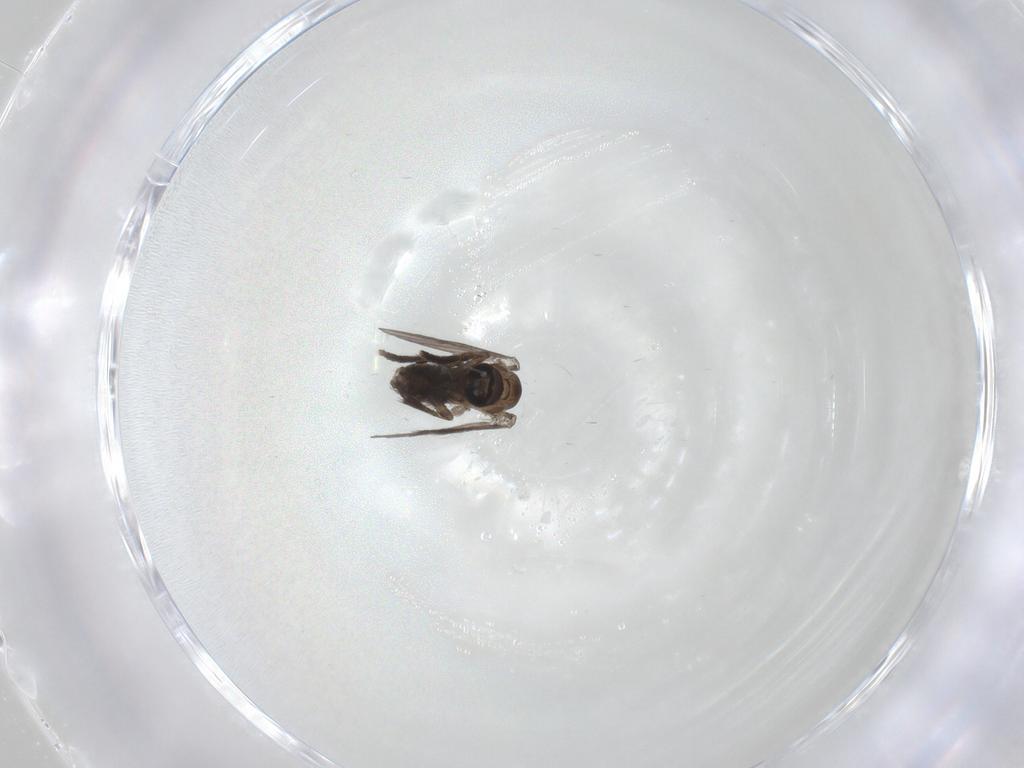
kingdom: Animalia
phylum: Arthropoda
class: Insecta
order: Diptera
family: Psychodidae
